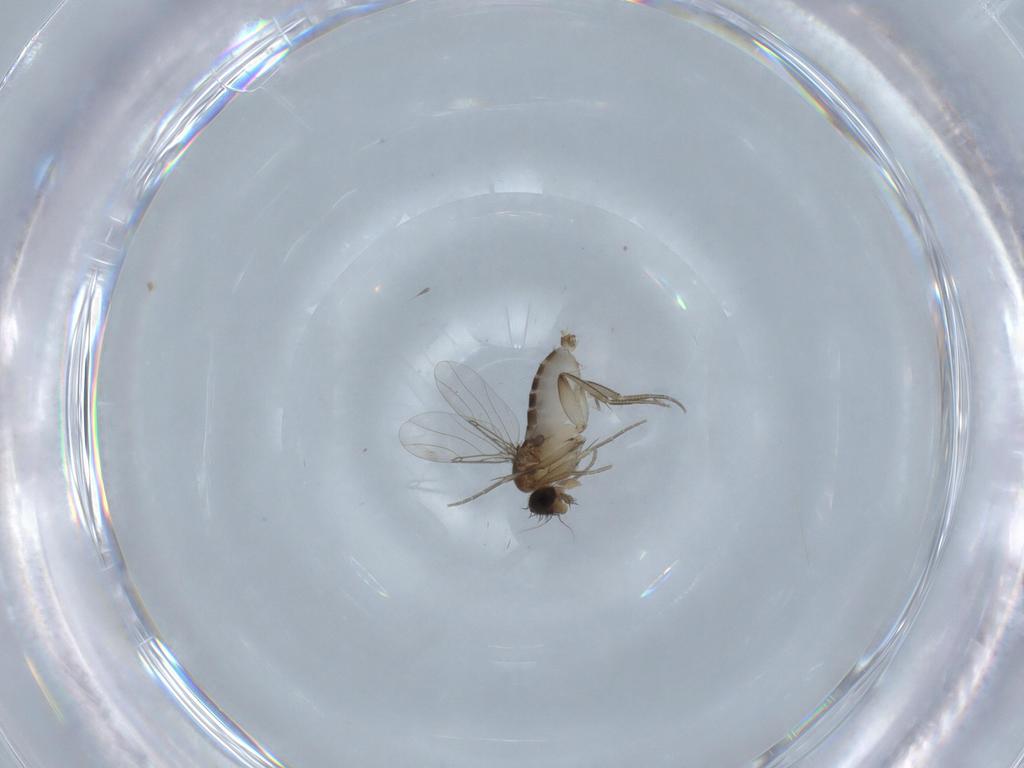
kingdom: Animalia
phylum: Arthropoda
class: Insecta
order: Diptera
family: Phoridae
